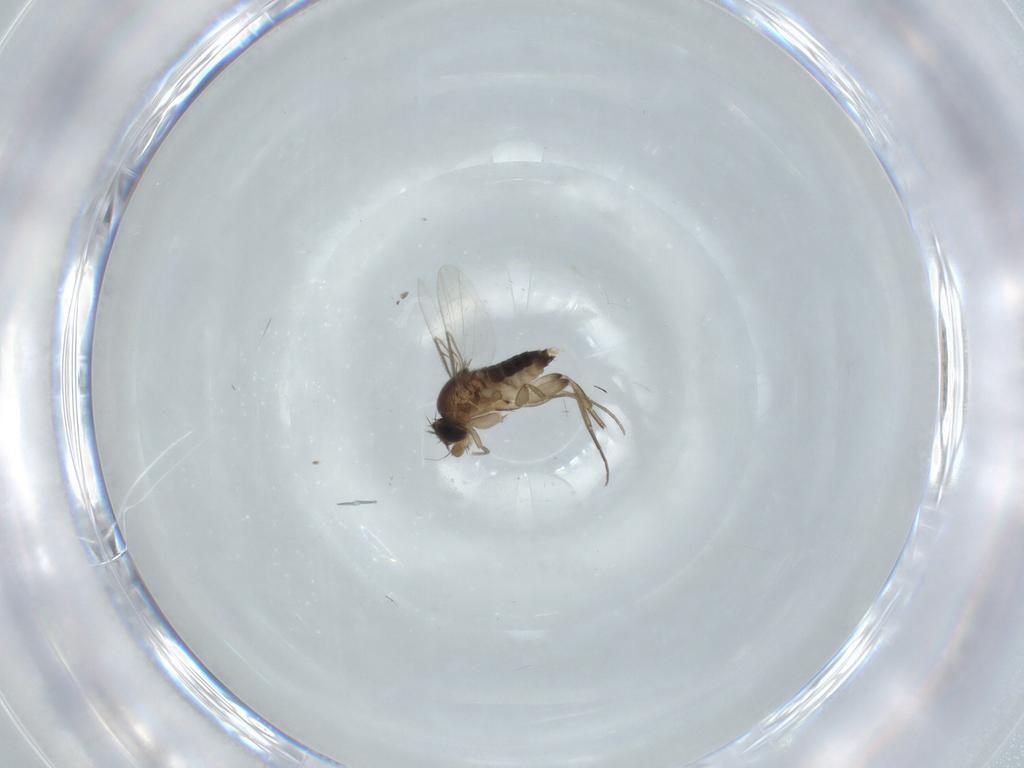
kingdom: Animalia
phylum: Arthropoda
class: Insecta
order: Diptera
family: Phoridae
